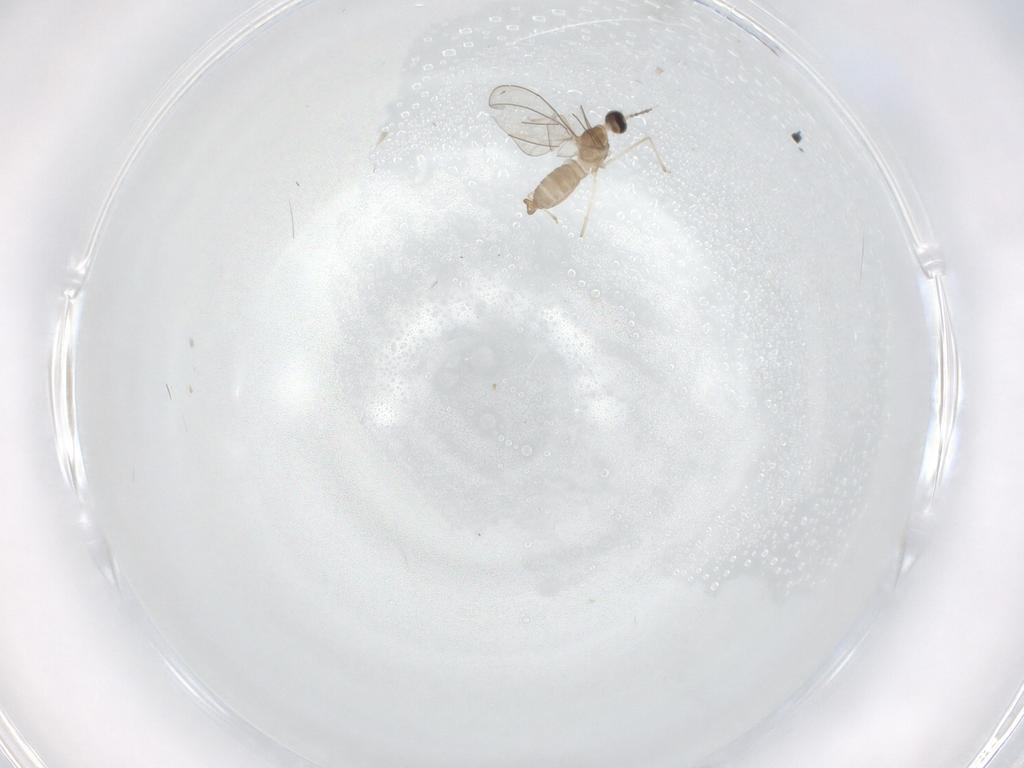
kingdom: Animalia
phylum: Arthropoda
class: Insecta
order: Diptera
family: Cecidomyiidae
